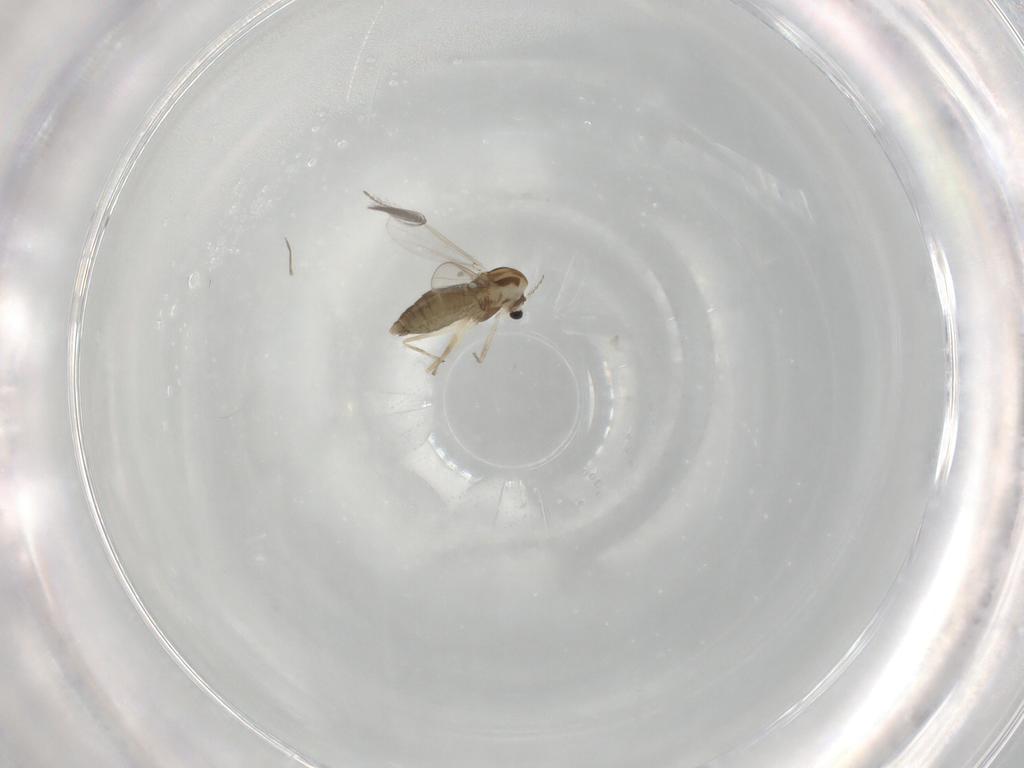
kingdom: Animalia
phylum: Arthropoda
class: Insecta
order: Diptera
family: Chironomidae
